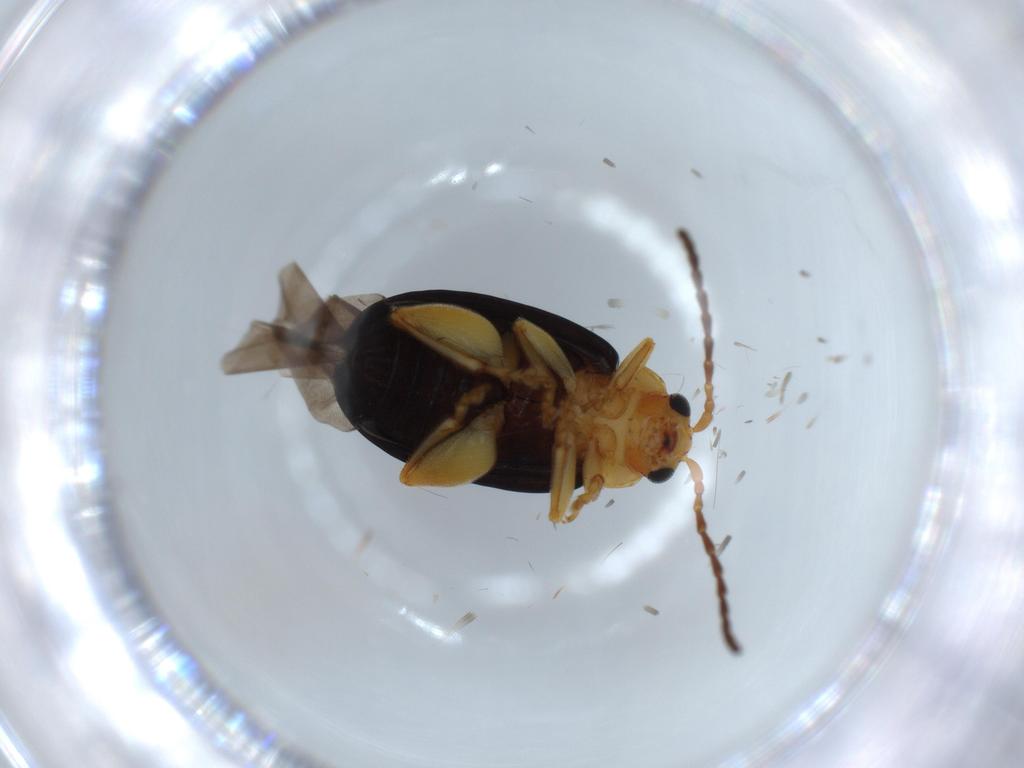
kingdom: Animalia
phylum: Arthropoda
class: Insecta
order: Coleoptera
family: Chrysomelidae
